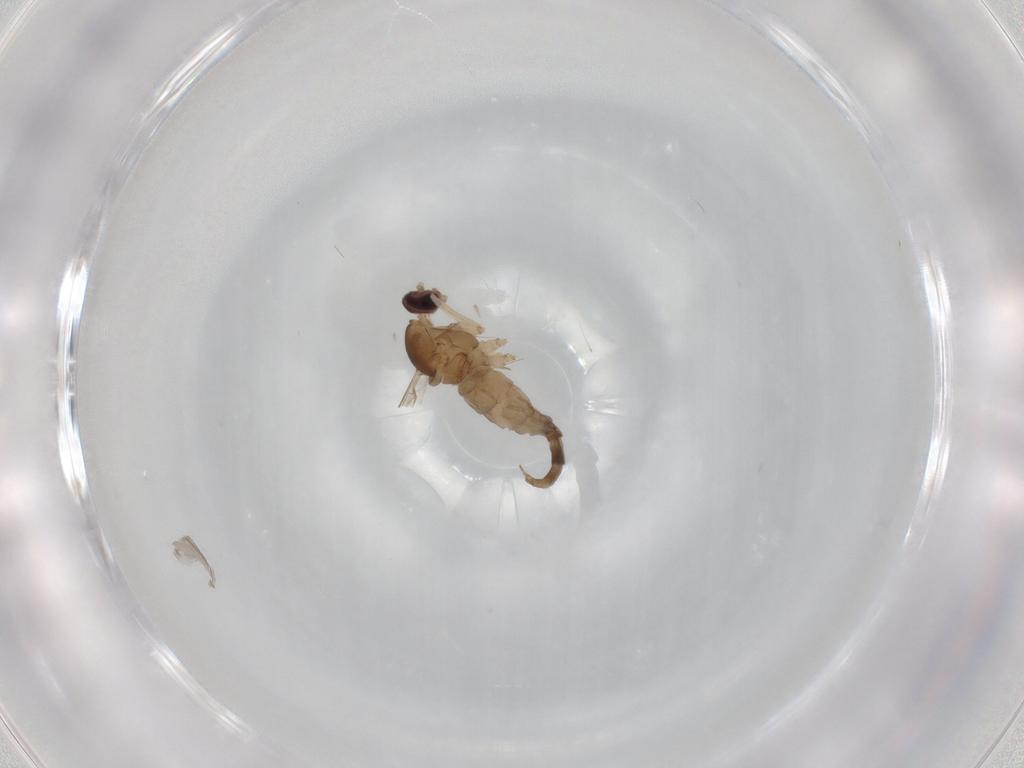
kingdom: Animalia
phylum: Arthropoda
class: Insecta
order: Diptera
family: Cecidomyiidae
